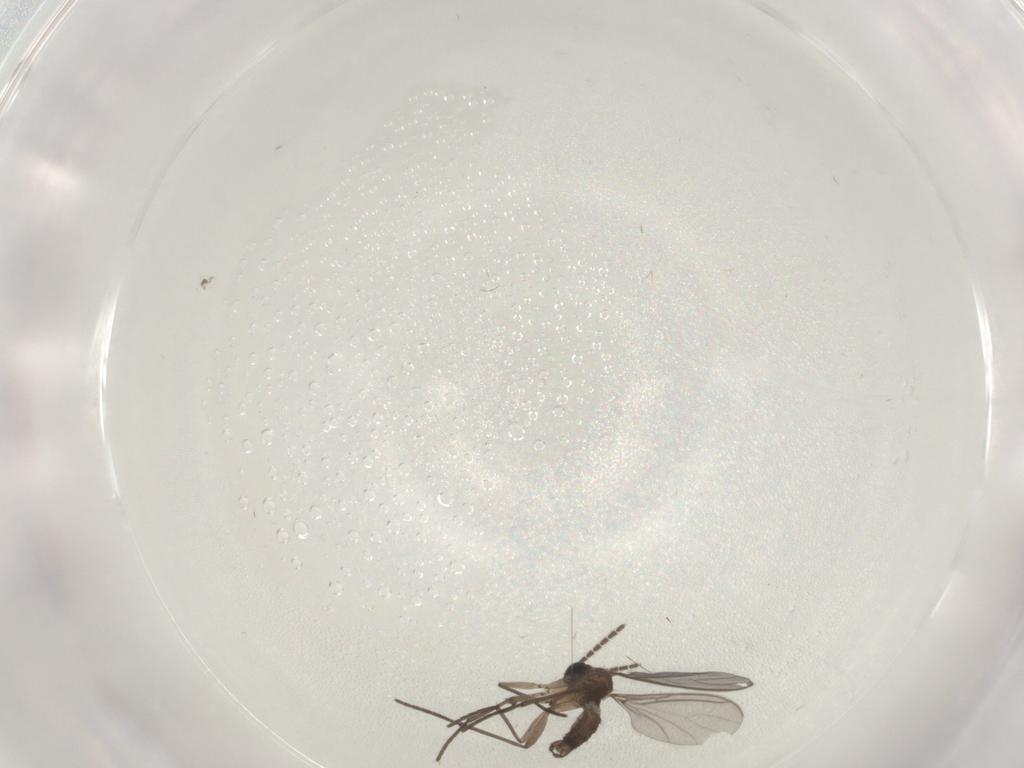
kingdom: Animalia
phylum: Arthropoda
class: Insecta
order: Diptera
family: Sciaridae
